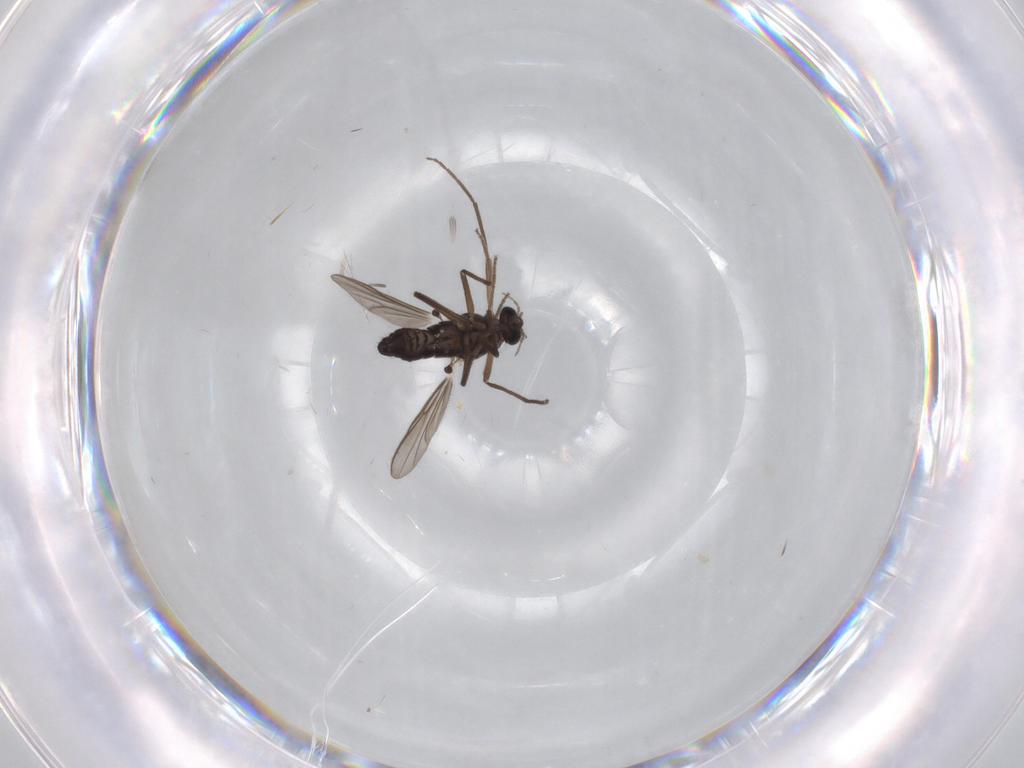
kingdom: Animalia
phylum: Arthropoda
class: Insecta
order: Diptera
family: Chironomidae
